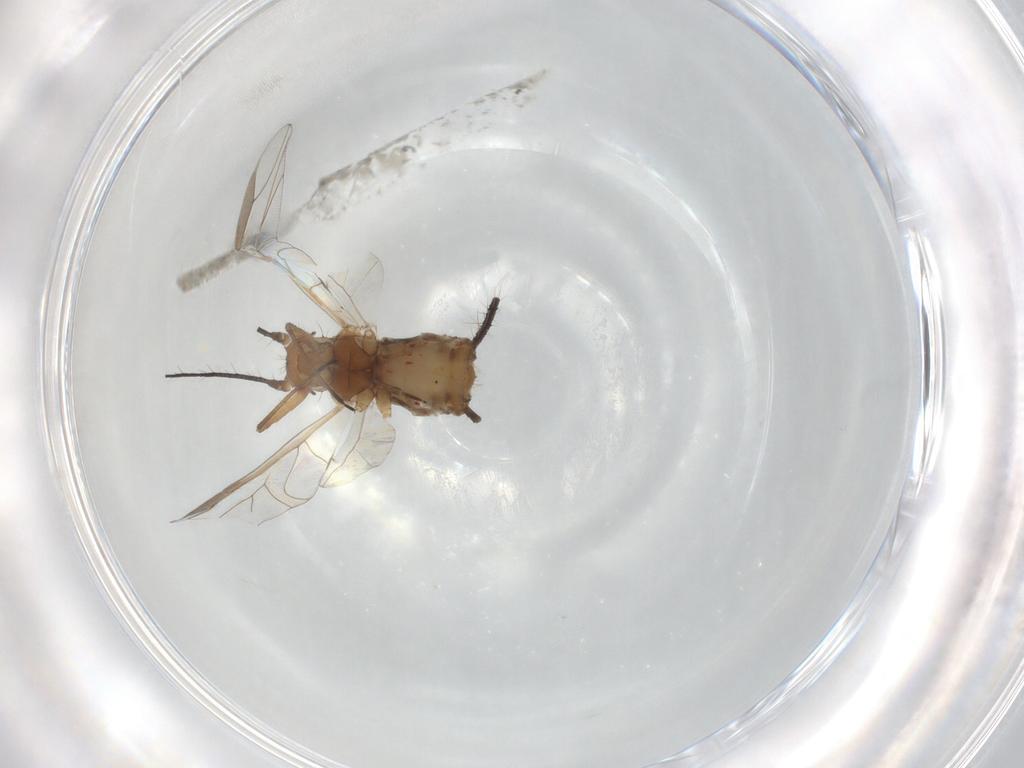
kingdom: Animalia
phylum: Arthropoda
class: Insecta
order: Hemiptera
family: Aphididae
